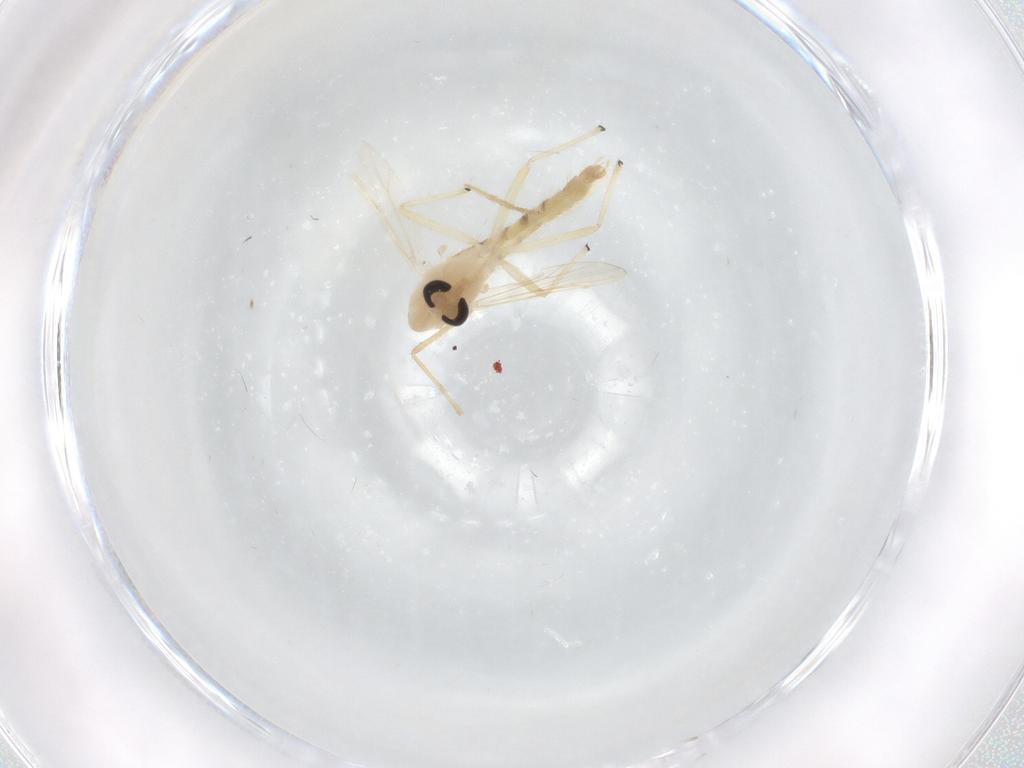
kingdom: Animalia
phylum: Arthropoda
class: Insecta
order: Diptera
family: Chironomidae
